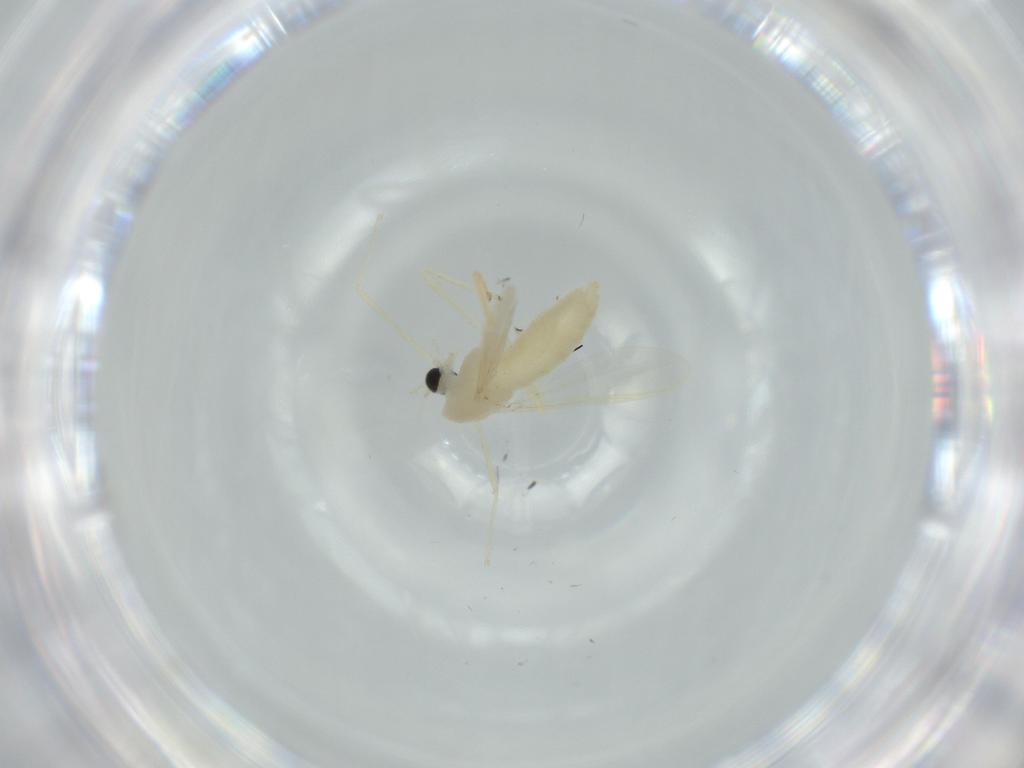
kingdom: Animalia
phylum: Arthropoda
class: Insecta
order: Diptera
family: Chironomidae
